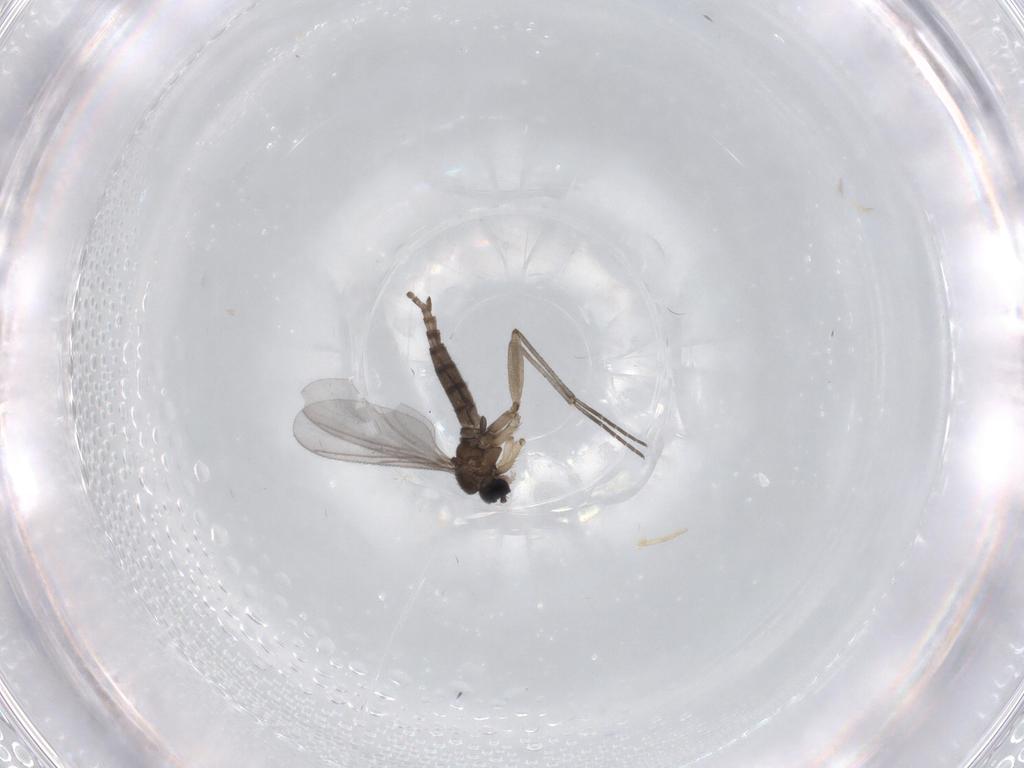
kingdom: Animalia
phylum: Arthropoda
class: Insecta
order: Diptera
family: Sciaridae
